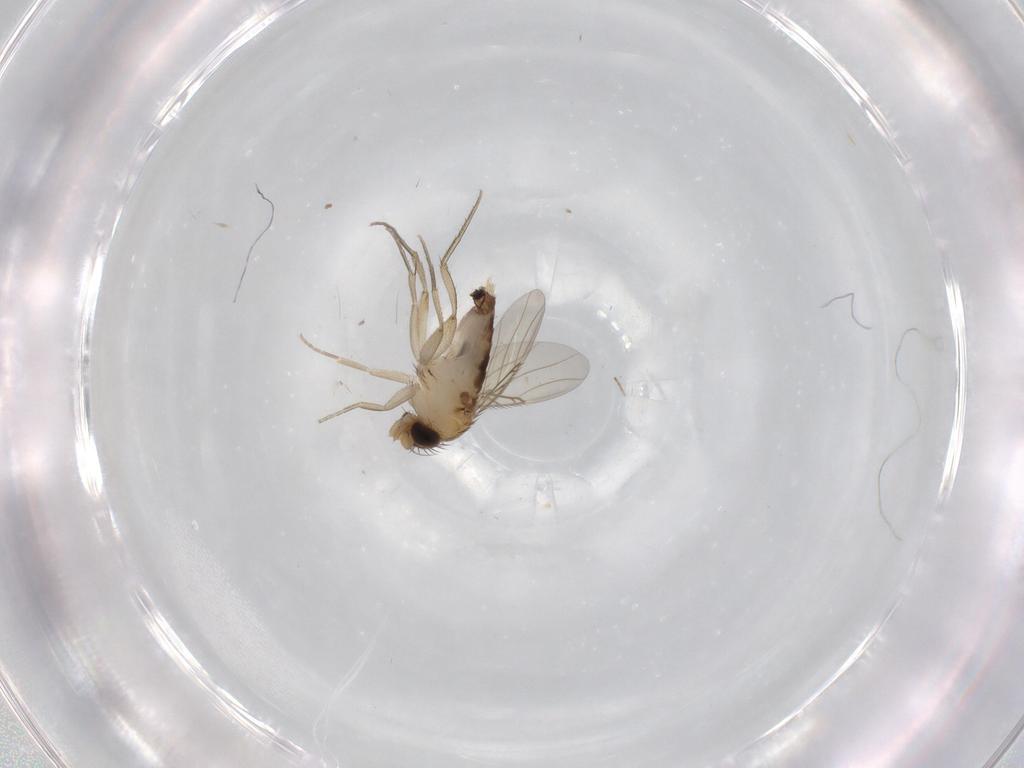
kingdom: Animalia
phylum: Arthropoda
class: Insecta
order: Diptera
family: Phoridae
